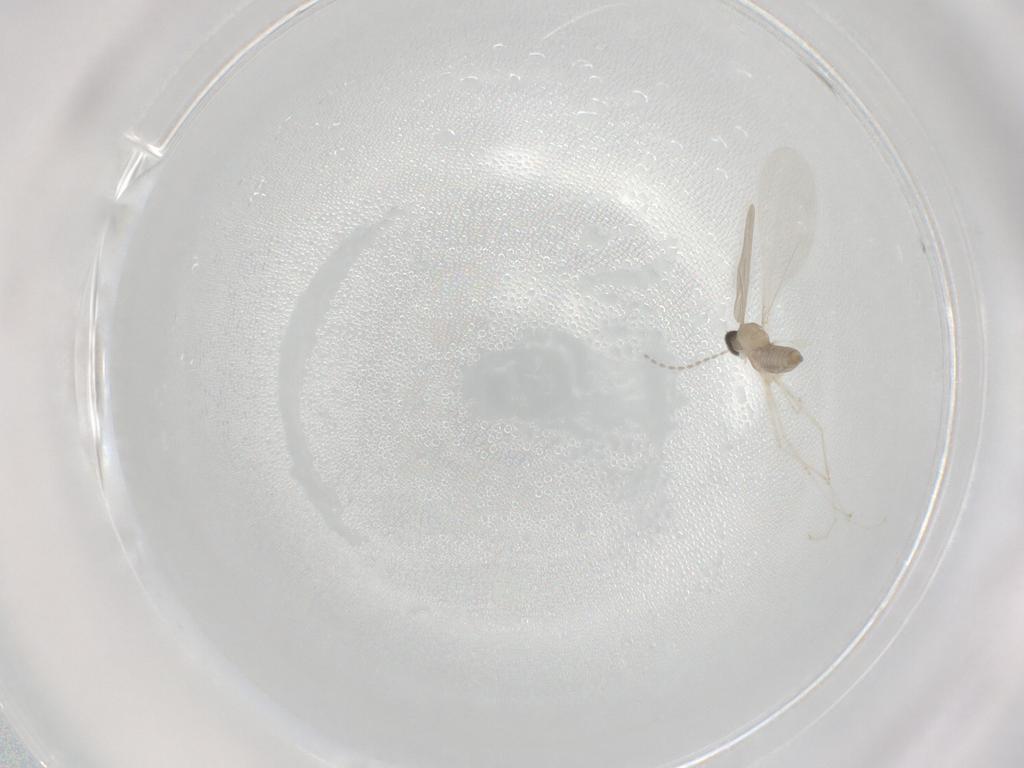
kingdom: Animalia
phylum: Arthropoda
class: Insecta
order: Diptera
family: Cecidomyiidae
